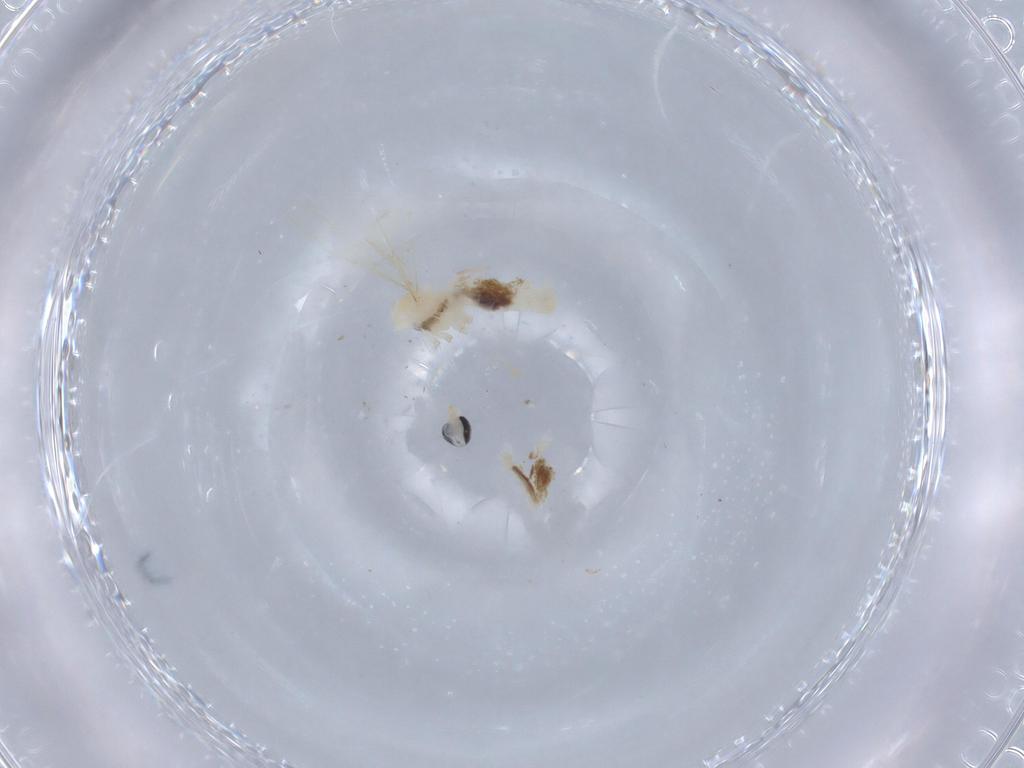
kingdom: Animalia
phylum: Arthropoda
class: Insecta
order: Diptera
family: Cecidomyiidae
